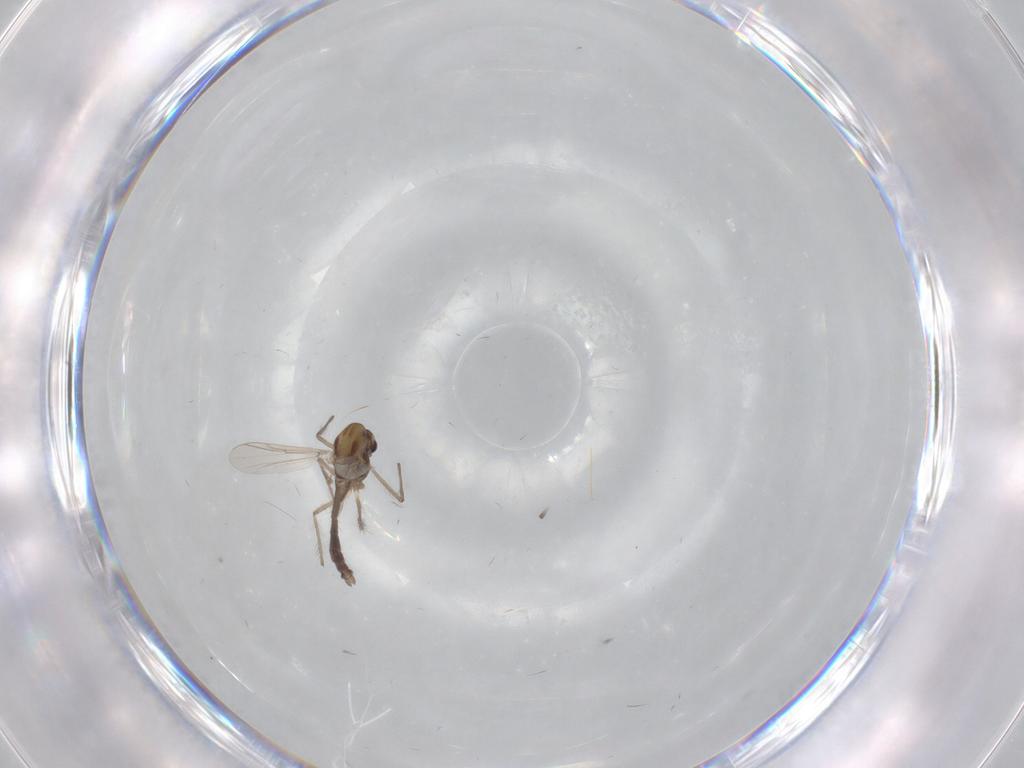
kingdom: Animalia
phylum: Arthropoda
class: Insecta
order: Diptera
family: Chironomidae
